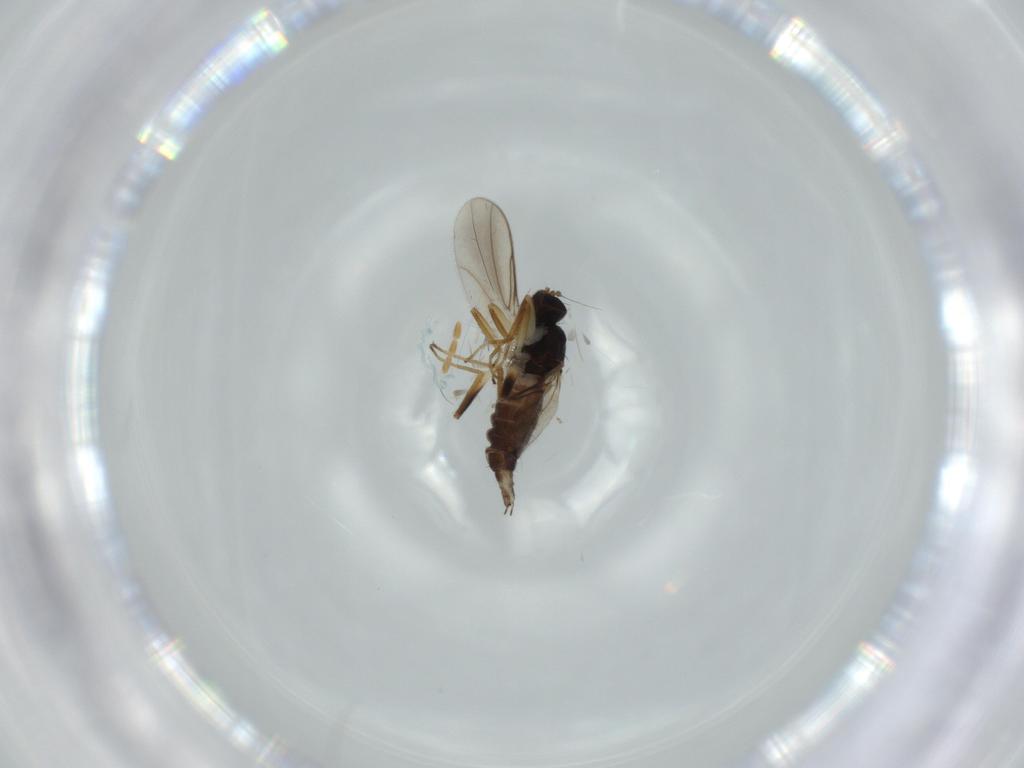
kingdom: Animalia
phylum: Arthropoda
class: Insecta
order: Diptera
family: Hybotidae
